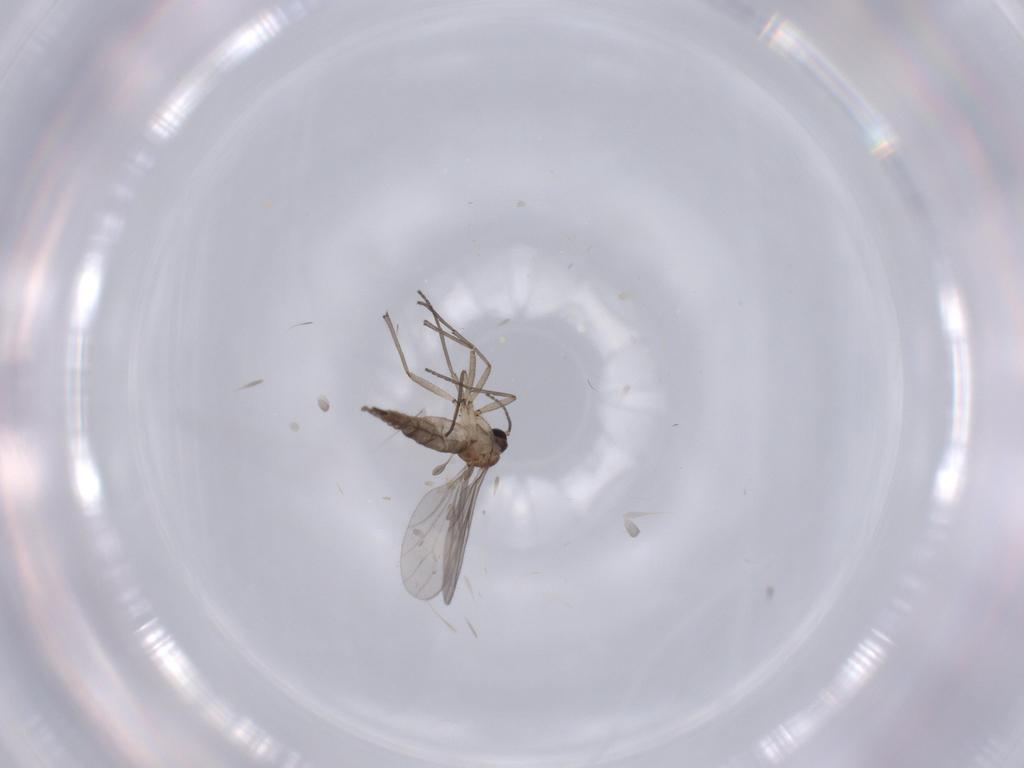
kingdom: Animalia
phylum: Arthropoda
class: Insecta
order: Diptera
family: Sciaridae
